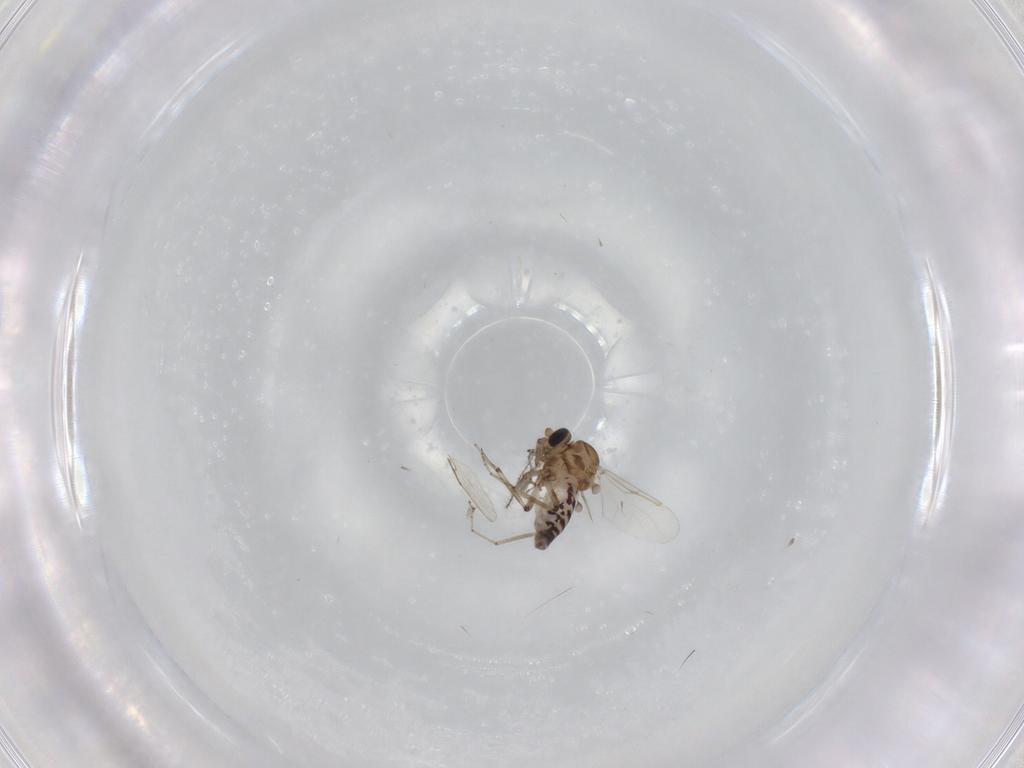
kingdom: Animalia
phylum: Arthropoda
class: Insecta
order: Diptera
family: Ceratopogonidae
